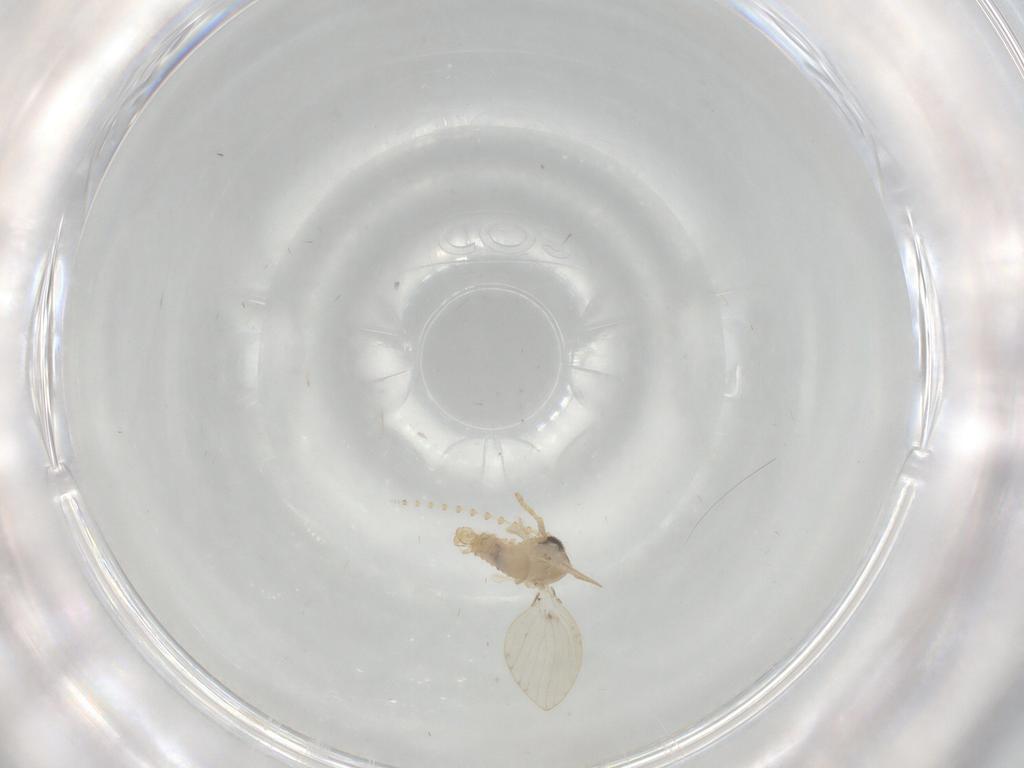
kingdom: Animalia
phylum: Arthropoda
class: Insecta
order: Diptera
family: Psychodidae
